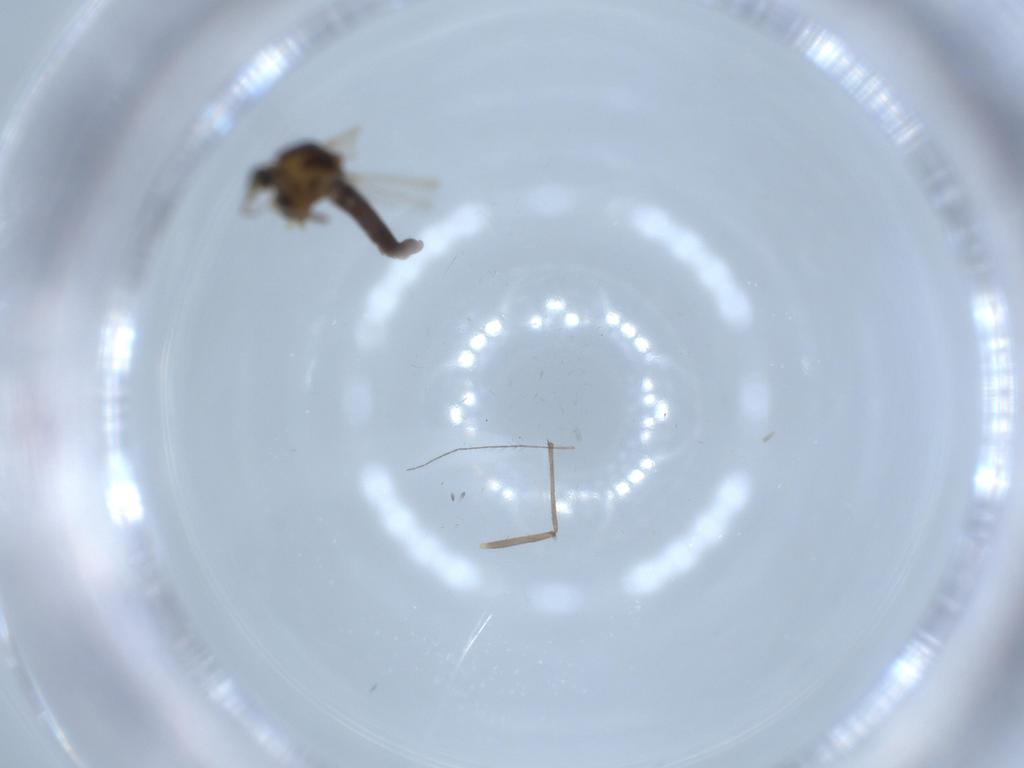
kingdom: Animalia
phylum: Arthropoda
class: Insecta
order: Diptera
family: Chironomidae
